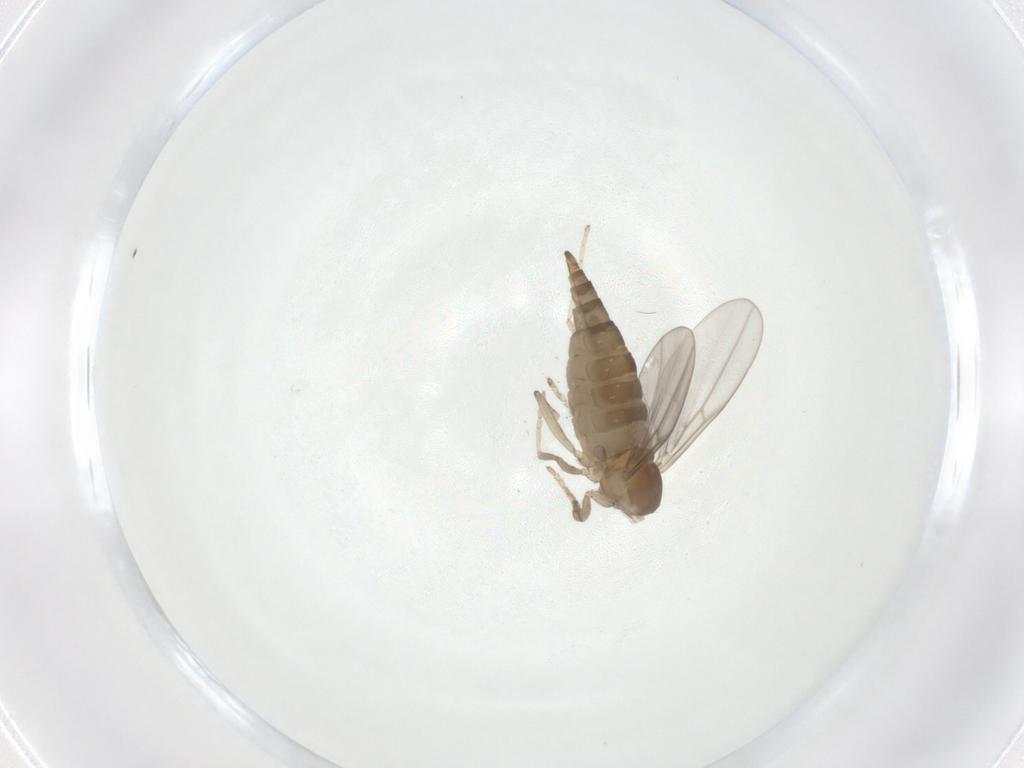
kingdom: Animalia
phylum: Arthropoda
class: Insecta
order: Diptera
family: Cecidomyiidae
